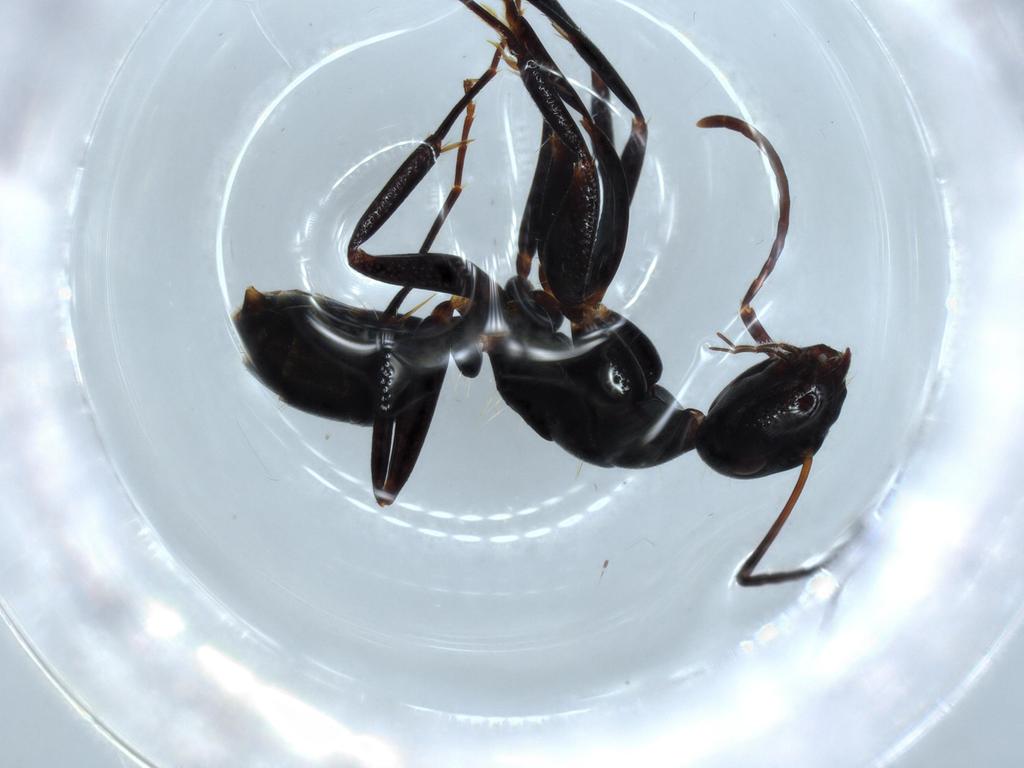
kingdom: Animalia
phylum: Arthropoda
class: Insecta
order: Hymenoptera
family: Formicidae
